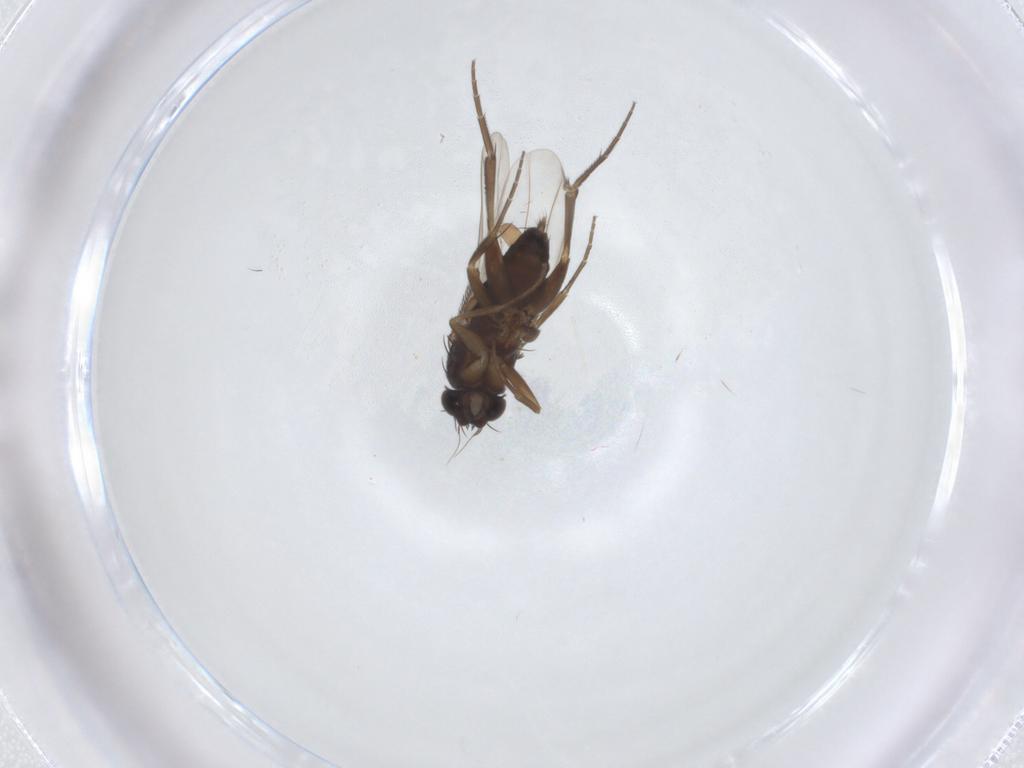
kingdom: Animalia
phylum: Arthropoda
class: Insecta
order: Diptera
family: Phoridae
